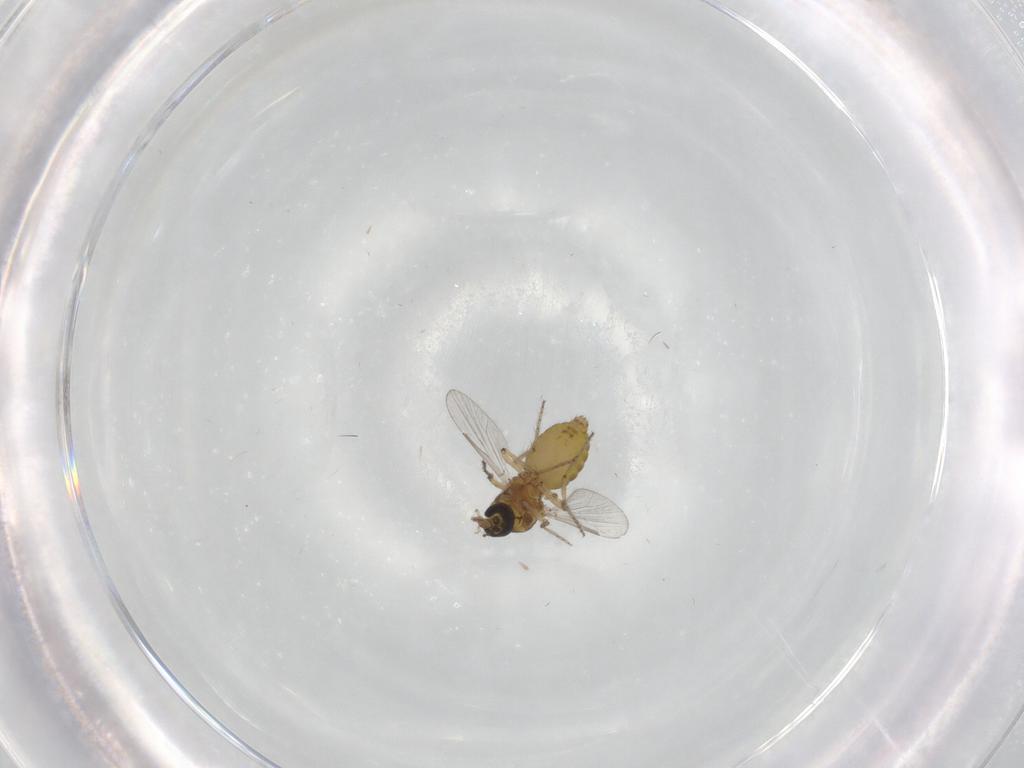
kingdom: Animalia
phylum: Arthropoda
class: Insecta
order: Diptera
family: Ceratopogonidae
